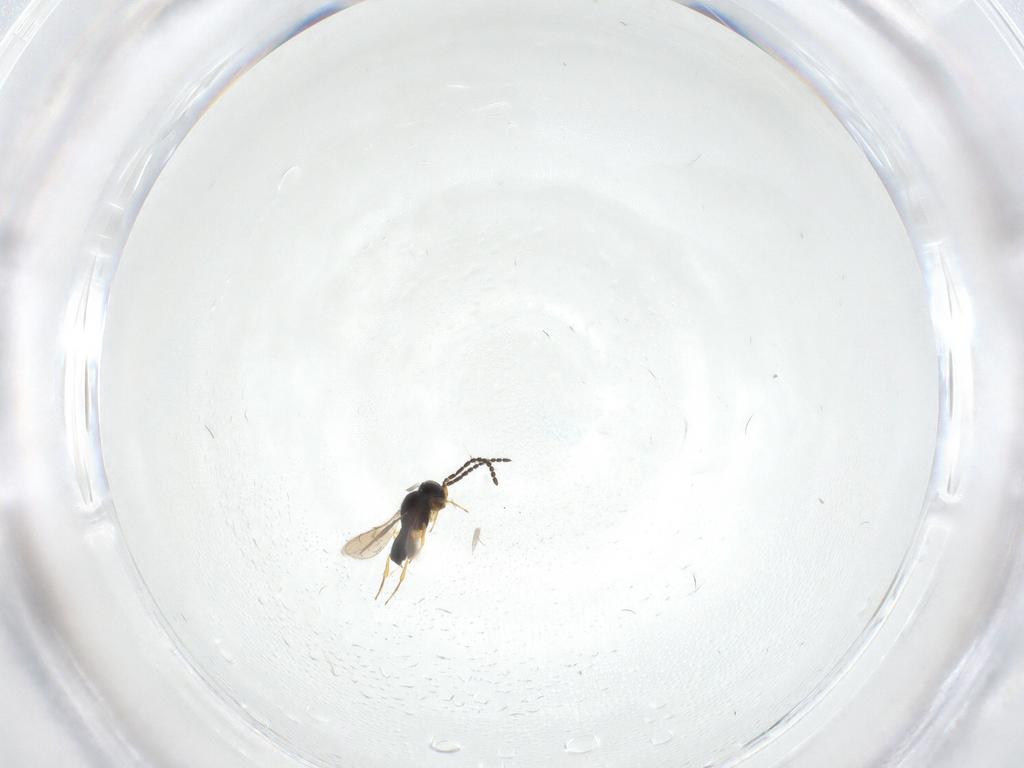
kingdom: Animalia
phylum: Arthropoda
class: Insecta
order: Hymenoptera
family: Scelionidae
